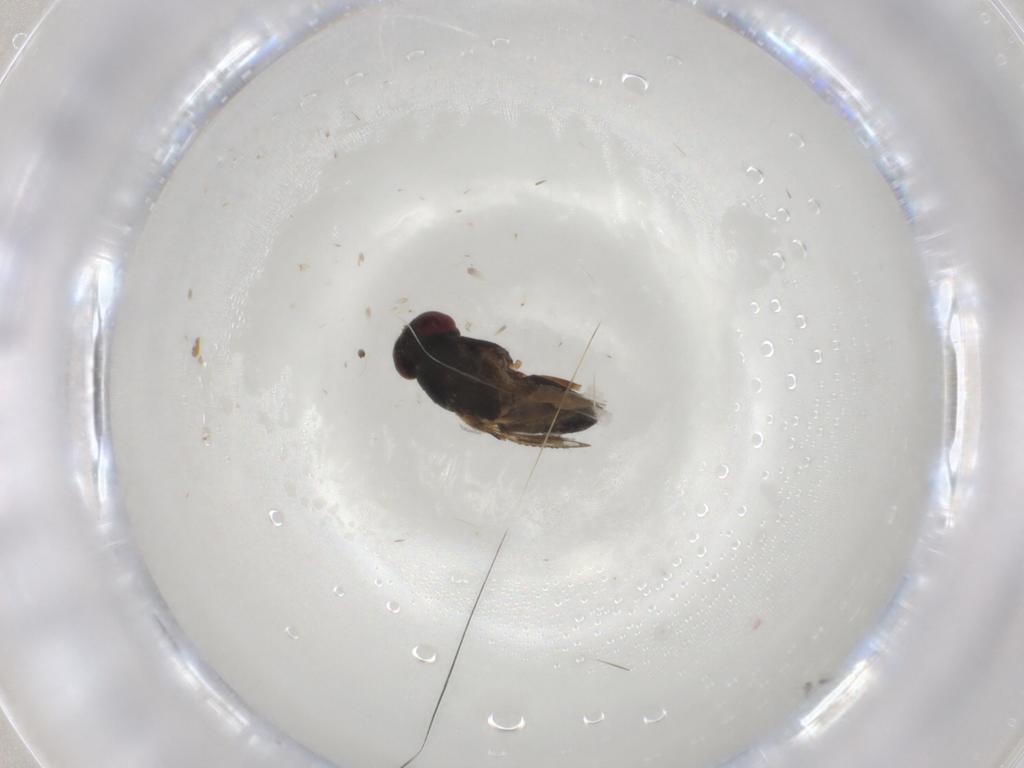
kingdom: Animalia
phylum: Arthropoda
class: Insecta
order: Diptera
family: Ephydridae
